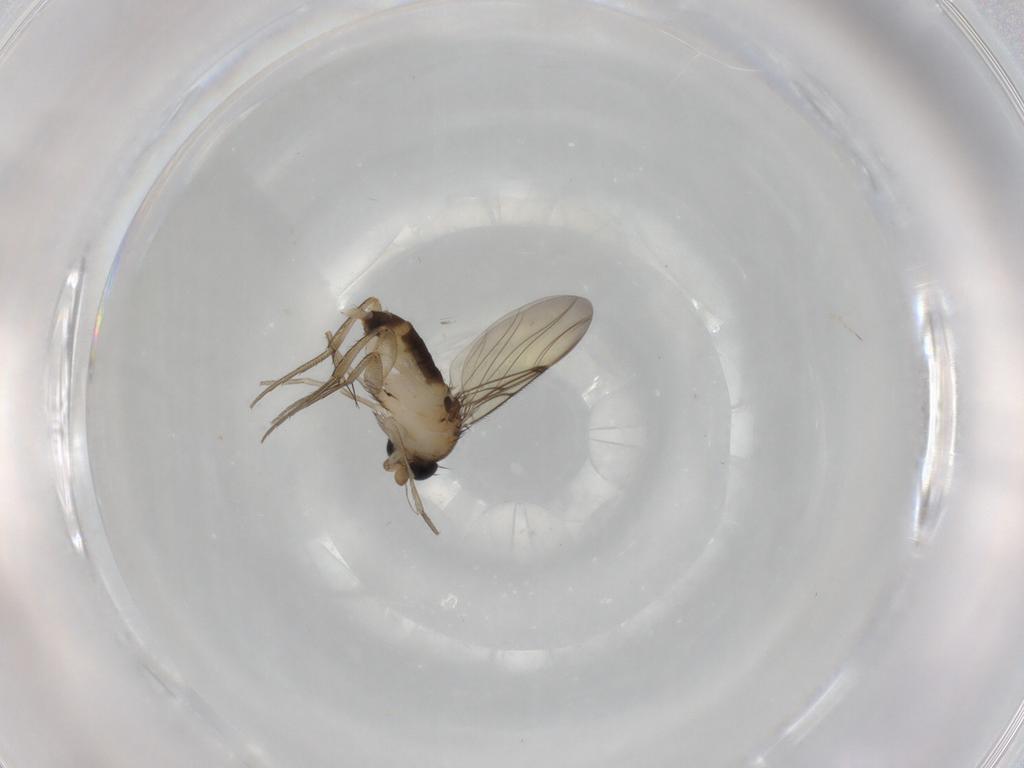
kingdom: Animalia
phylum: Arthropoda
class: Insecta
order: Diptera
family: Phoridae
